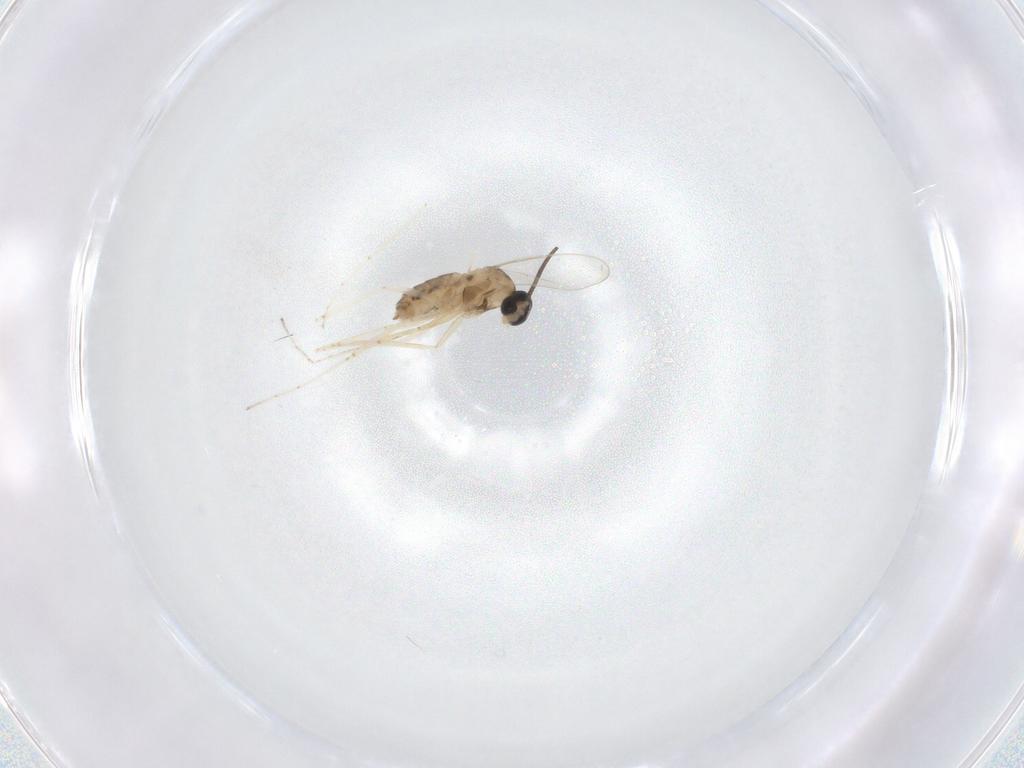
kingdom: Animalia
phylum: Arthropoda
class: Insecta
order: Diptera
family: Cecidomyiidae
